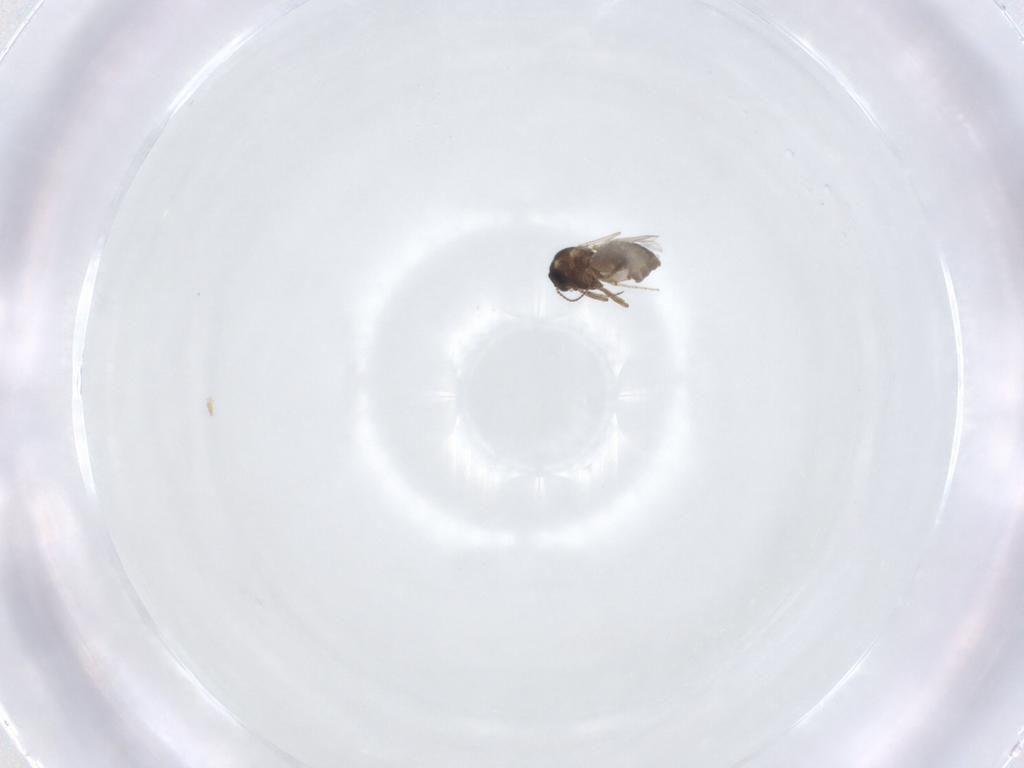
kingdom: Animalia
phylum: Arthropoda
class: Insecta
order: Diptera
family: Ceratopogonidae
